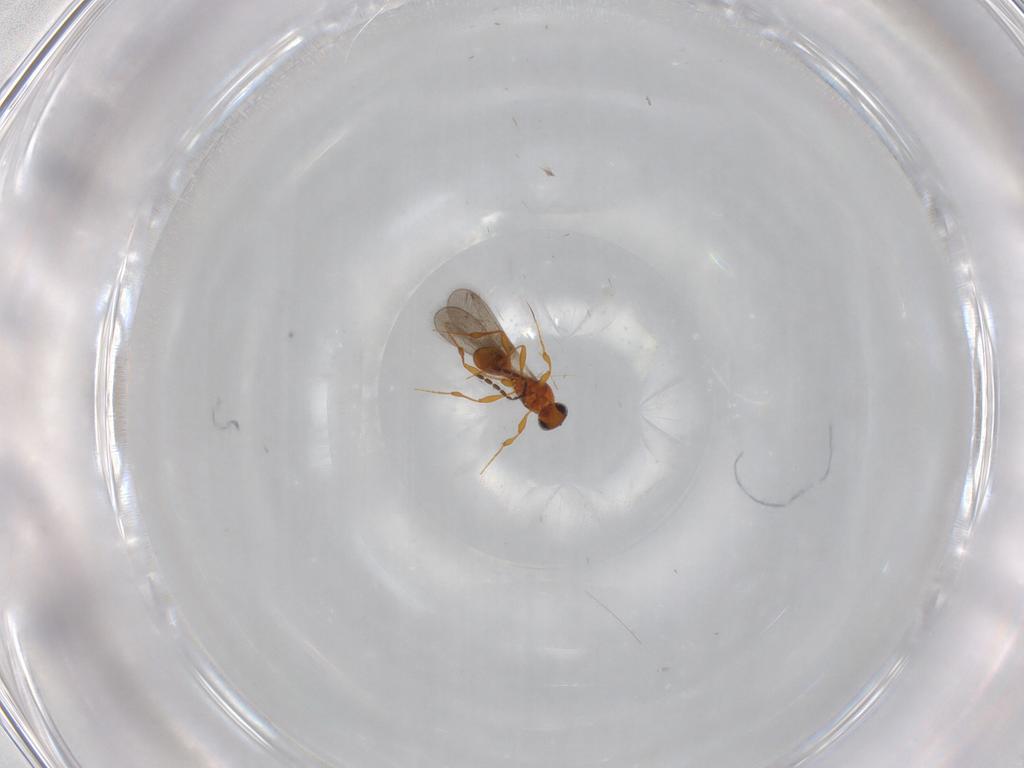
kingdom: Animalia
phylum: Arthropoda
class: Insecta
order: Hymenoptera
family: Platygastridae
